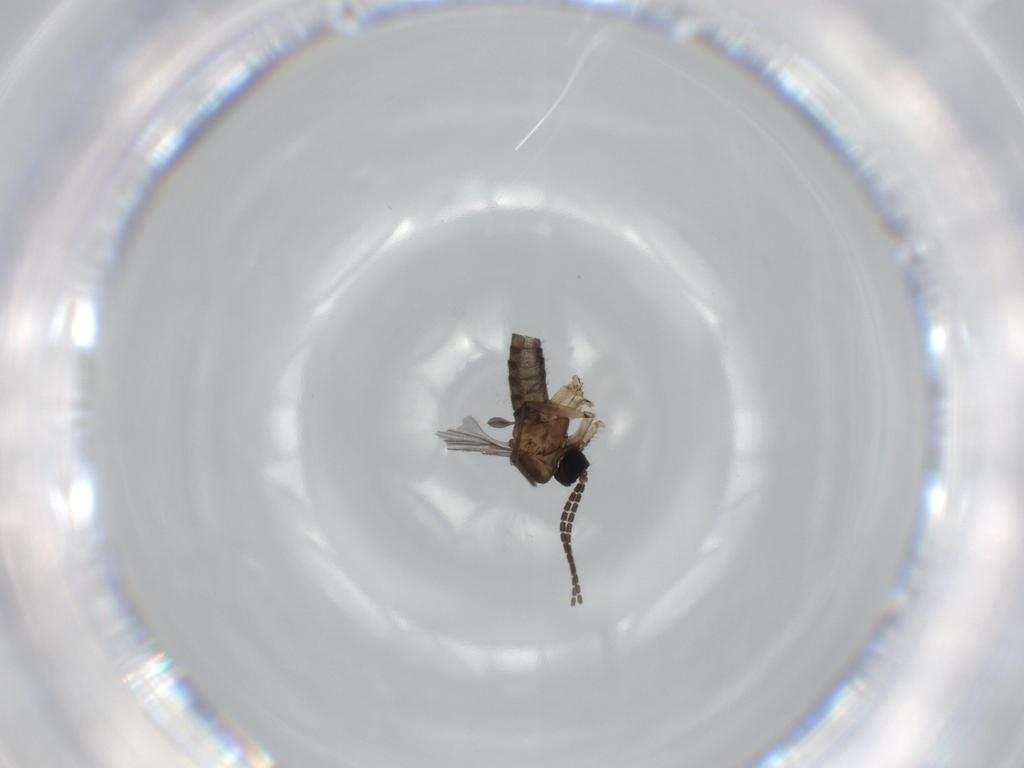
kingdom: Animalia
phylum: Arthropoda
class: Insecta
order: Diptera
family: Sciaridae
